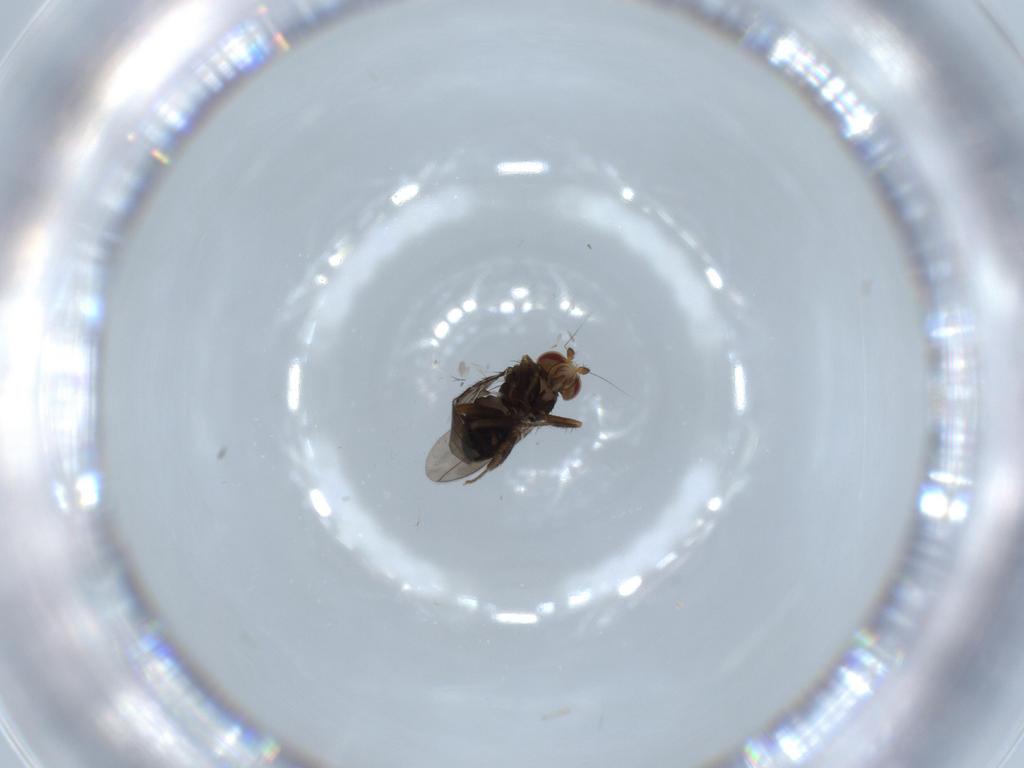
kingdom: Animalia
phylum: Arthropoda
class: Insecta
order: Diptera
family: Sphaeroceridae
